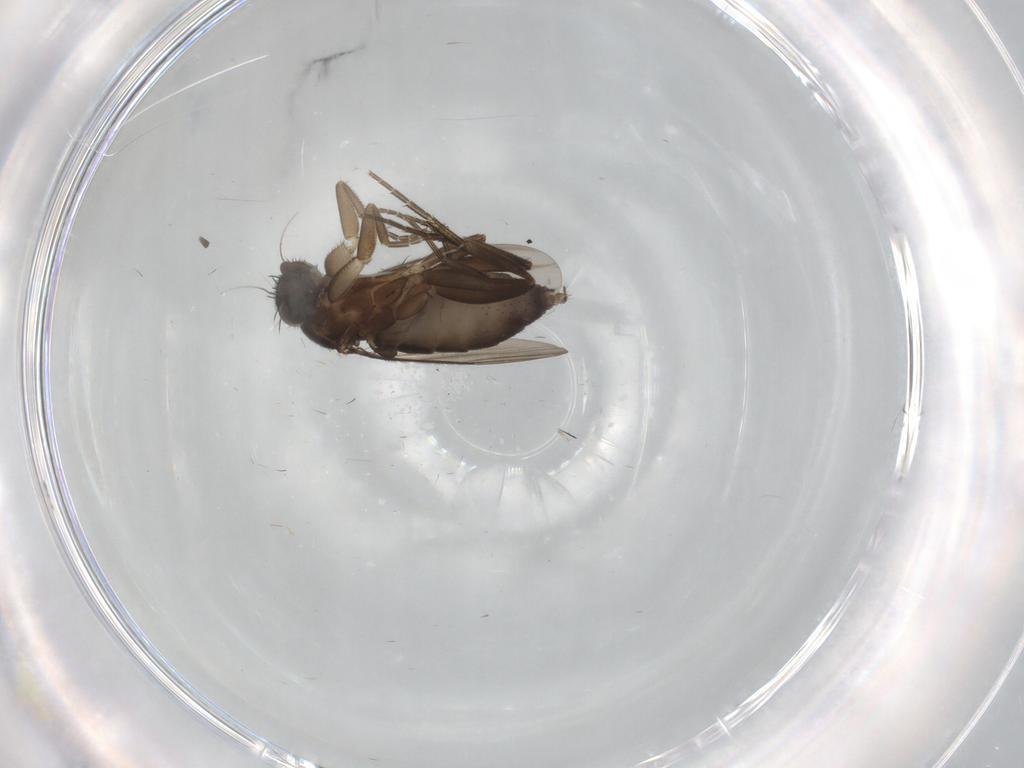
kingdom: Animalia
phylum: Arthropoda
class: Insecta
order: Diptera
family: Phoridae
